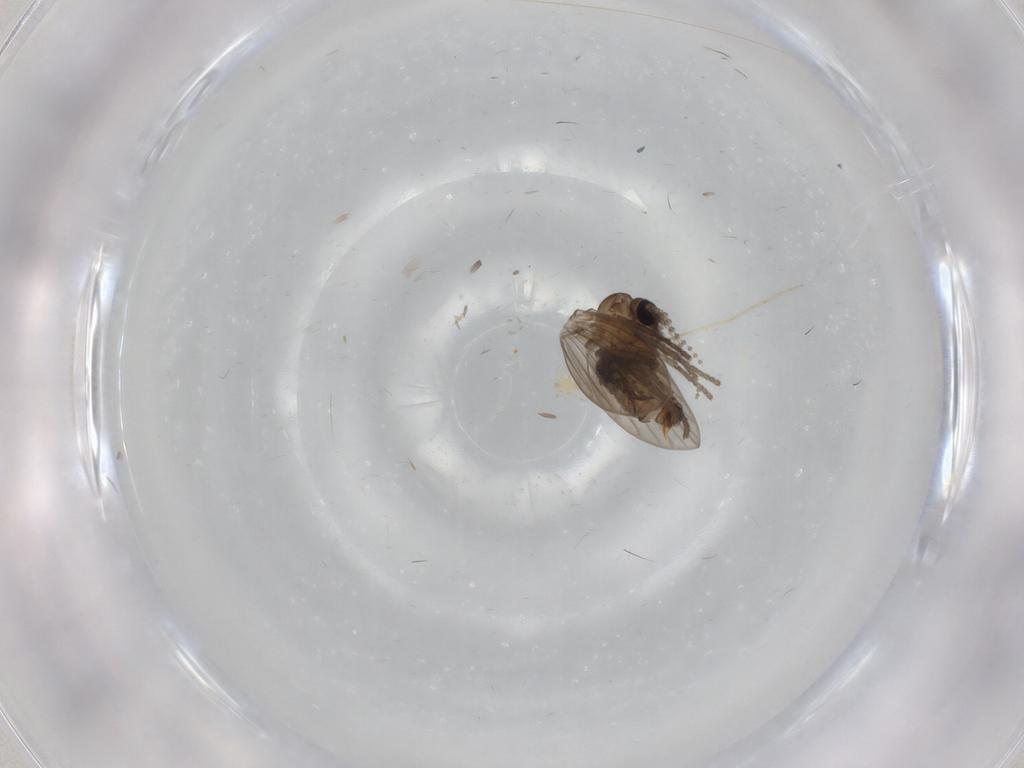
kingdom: Animalia
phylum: Arthropoda
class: Insecta
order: Diptera
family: Psychodidae
